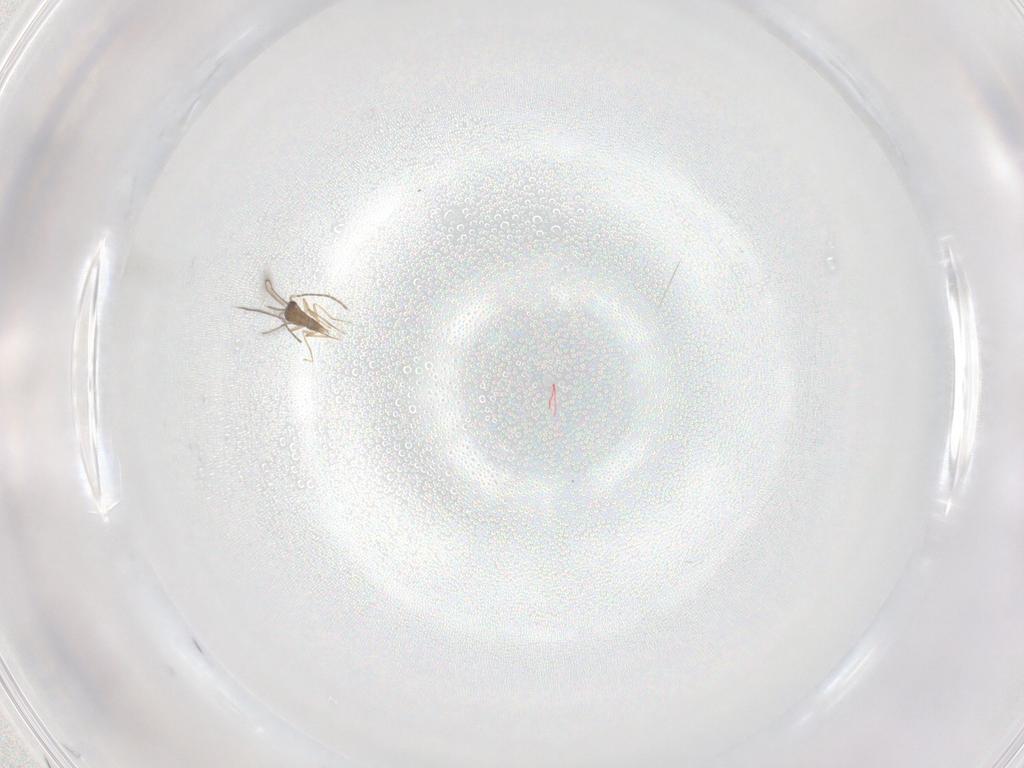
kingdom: Animalia
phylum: Arthropoda
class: Insecta
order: Hymenoptera
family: Mymaridae
